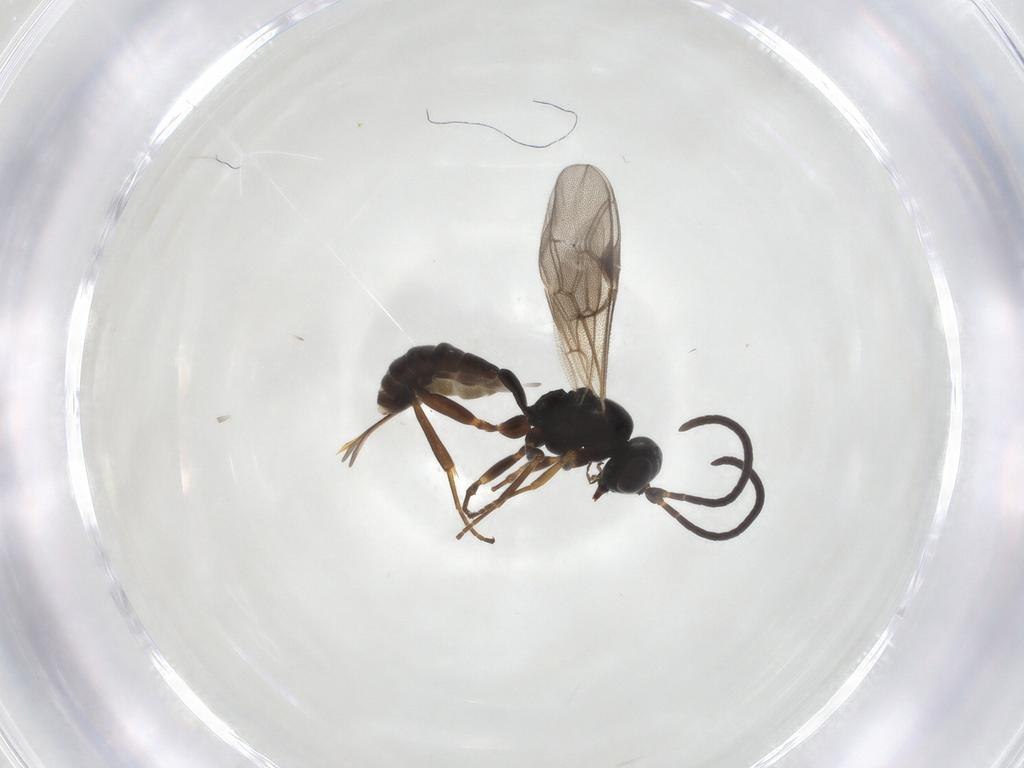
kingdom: Animalia
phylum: Arthropoda
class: Insecta
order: Hymenoptera
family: Ichneumonidae
